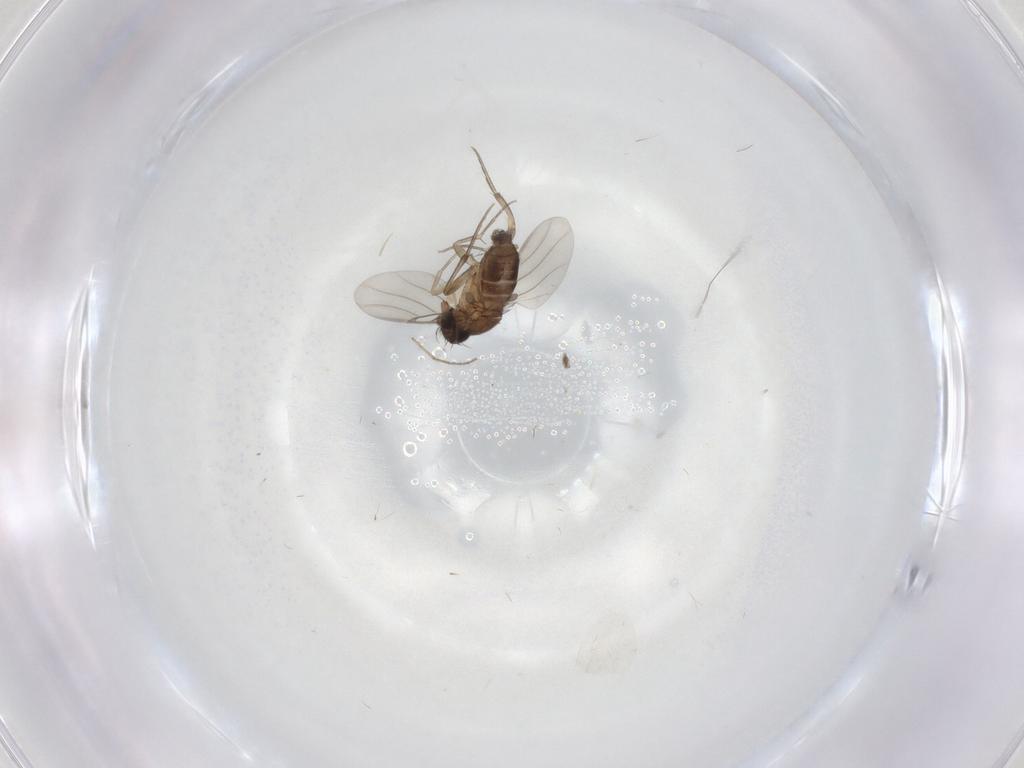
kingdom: Animalia
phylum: Arthropoda
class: Insecta
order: Diptera
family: Phoridae
